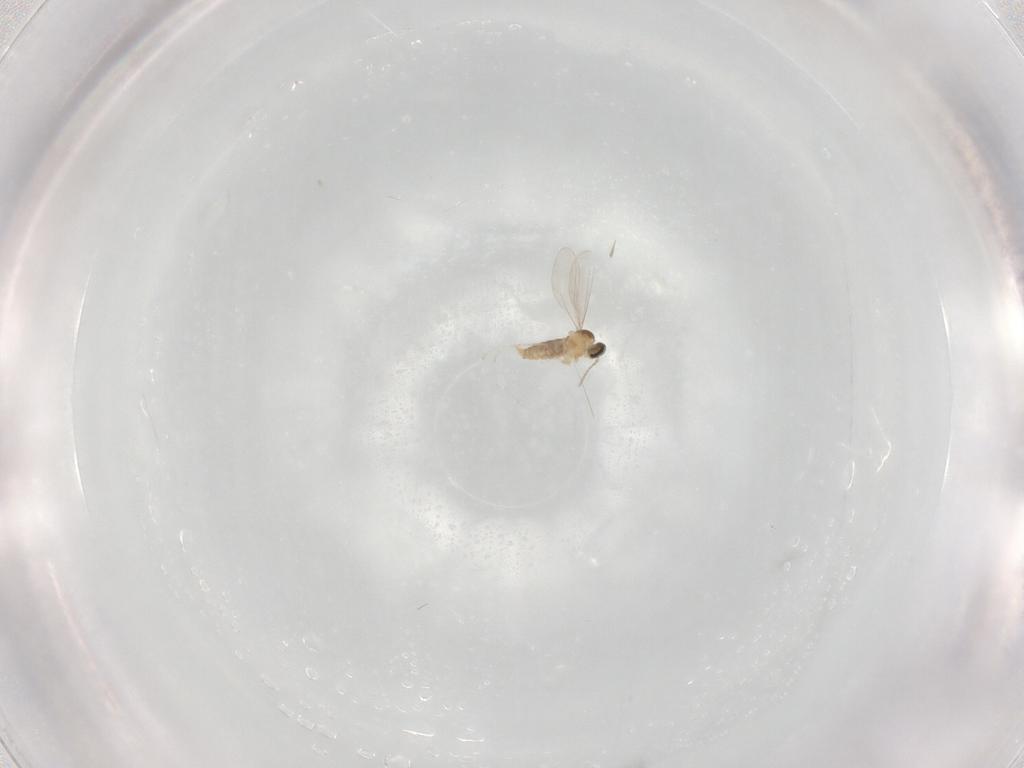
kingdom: Animalia
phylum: Arthropoda
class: Insecta
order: Diptera
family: Cecidomyiidae
